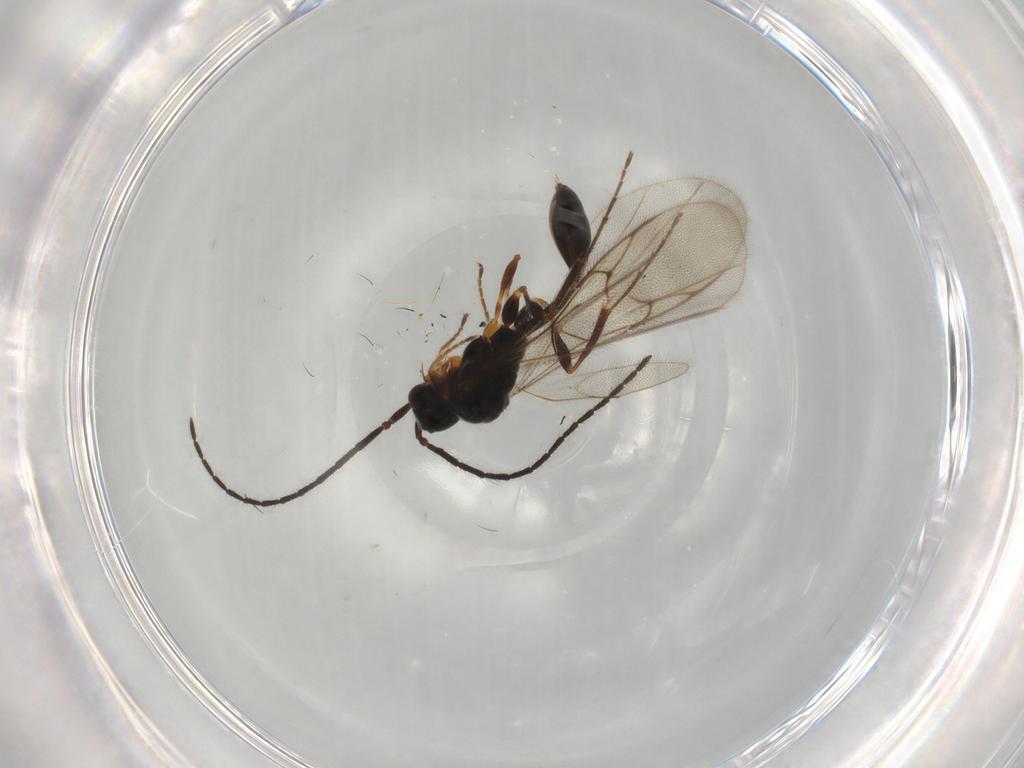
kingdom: Animalia
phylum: Arthropoda
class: Insecta
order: Hymenoptera
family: Diapriidae
